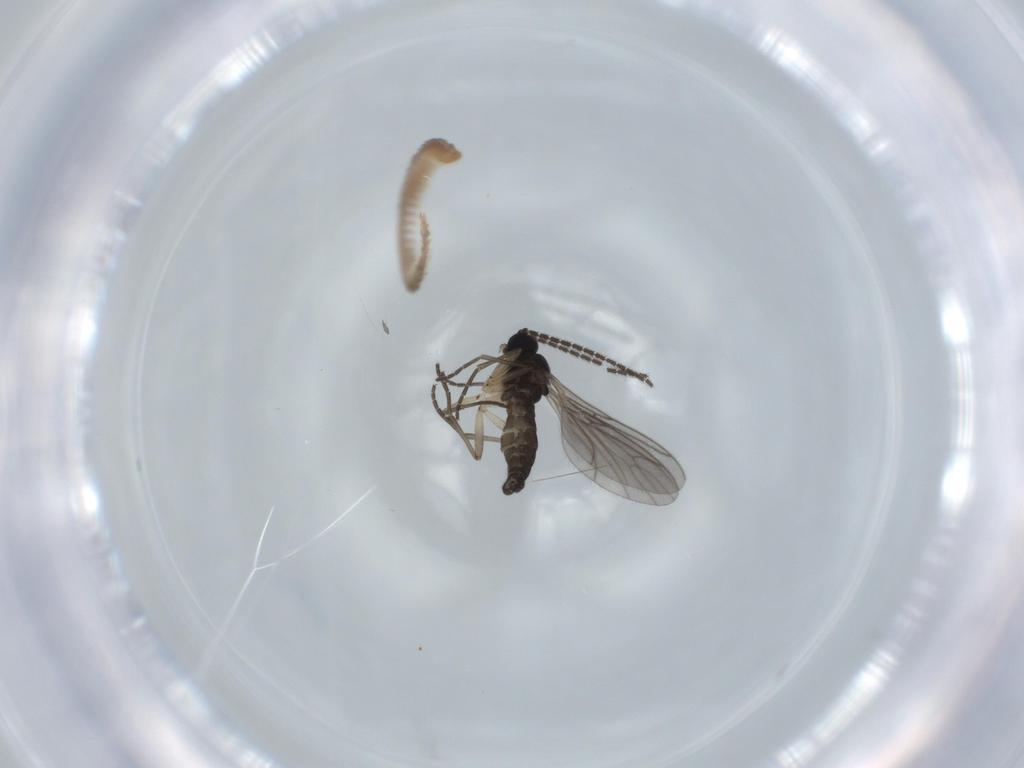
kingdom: Animalia
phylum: Arthropoda
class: Insecta
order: Diptera
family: Sciaridae
